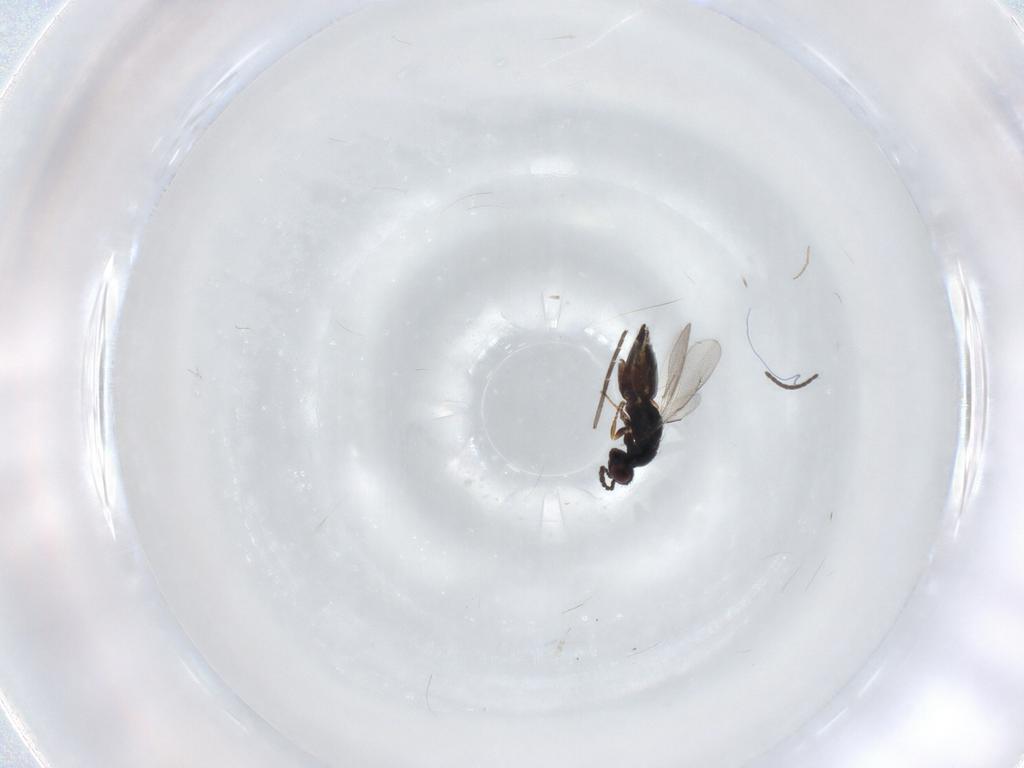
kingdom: Animalia
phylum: Arthropoda
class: Insecta
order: Hymenoptera
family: Eulophidae
